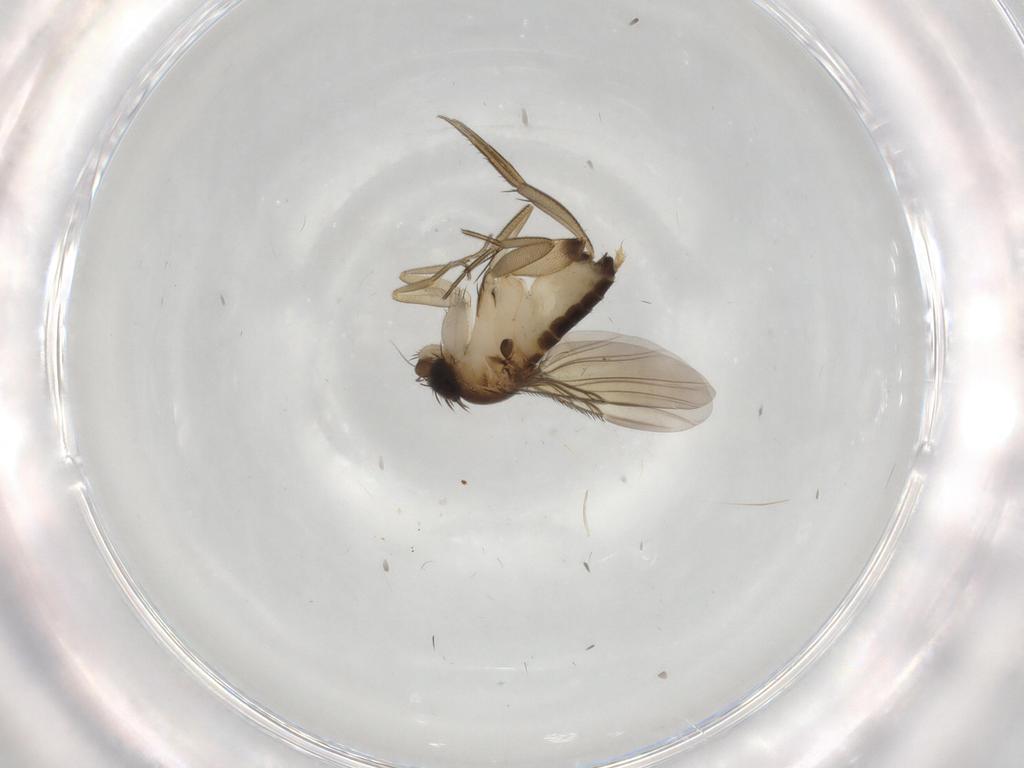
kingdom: Animalia
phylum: Arthropoda
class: Insecta
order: Diptera
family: Phoridae
